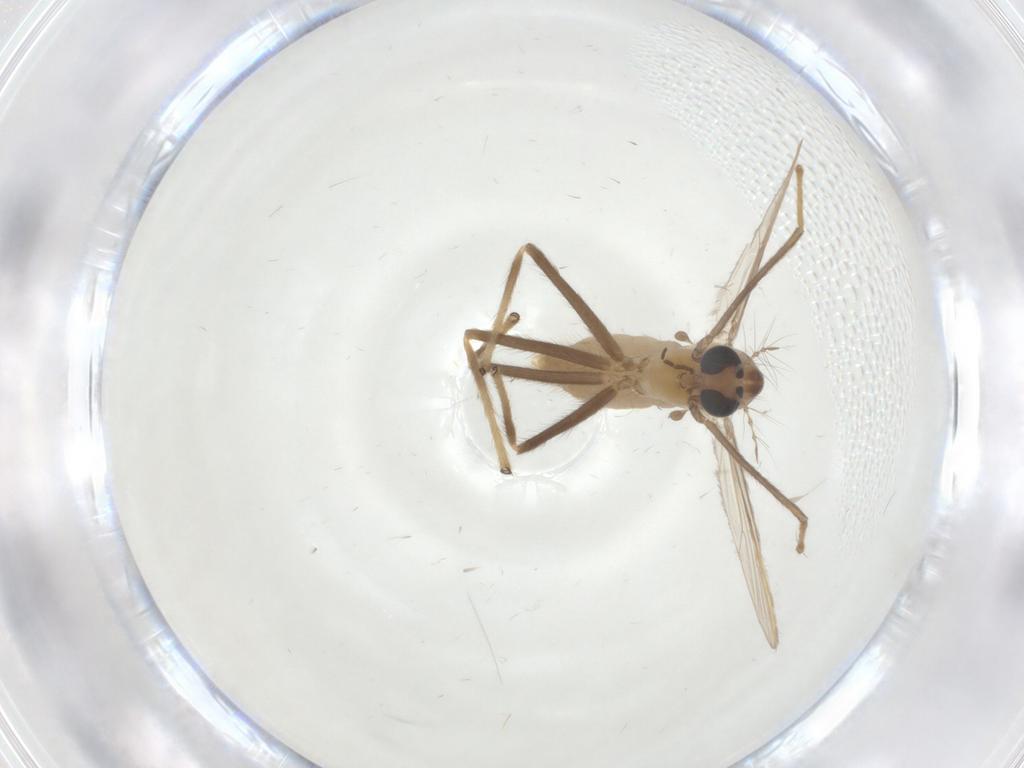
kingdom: Animalia
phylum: Arthropoda
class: Insecta
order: Diptera
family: Chironomidae
